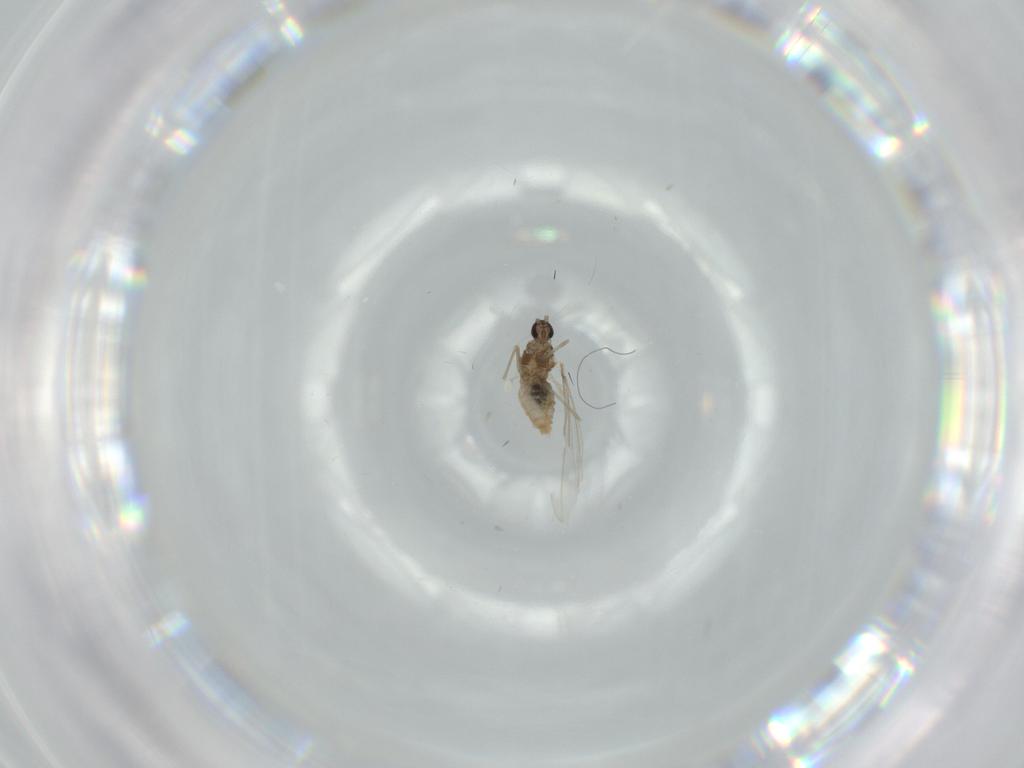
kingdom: Animalia
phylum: Arthropoda
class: Insecta
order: Diptera
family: Cecidomyiidae
